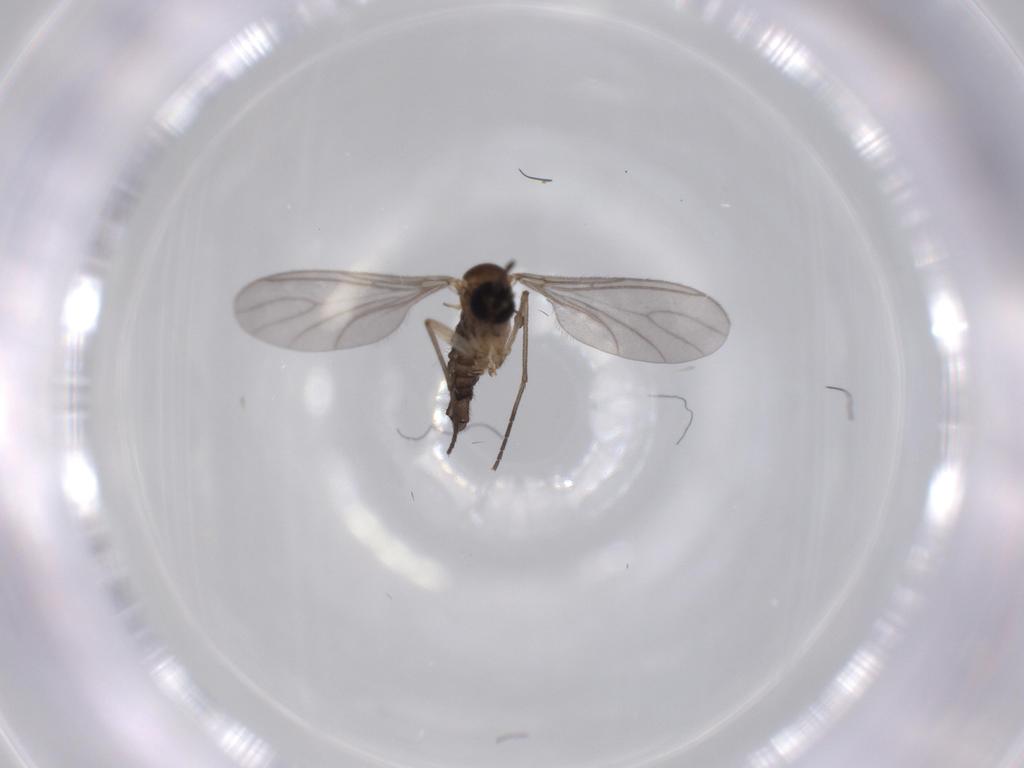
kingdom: Animalia
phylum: Arthropoda
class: Insecta
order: Diptera
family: Sciaridae
